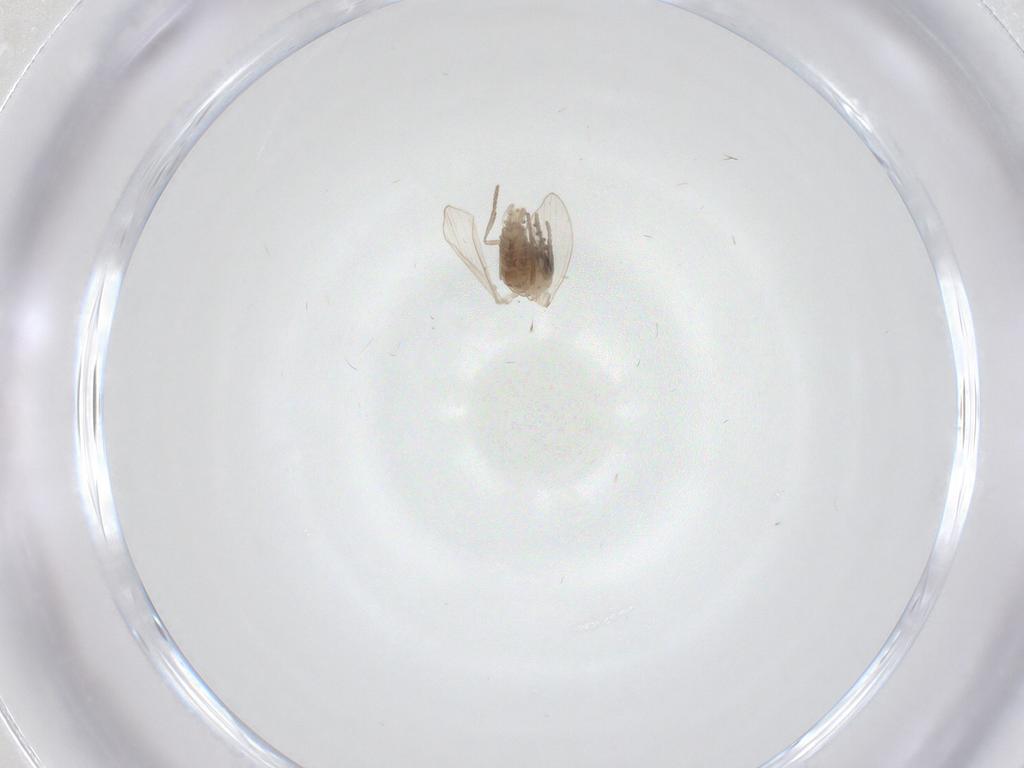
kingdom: Animalia
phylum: Arthropoda
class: Insecta
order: Diptera
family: Psychodidae
